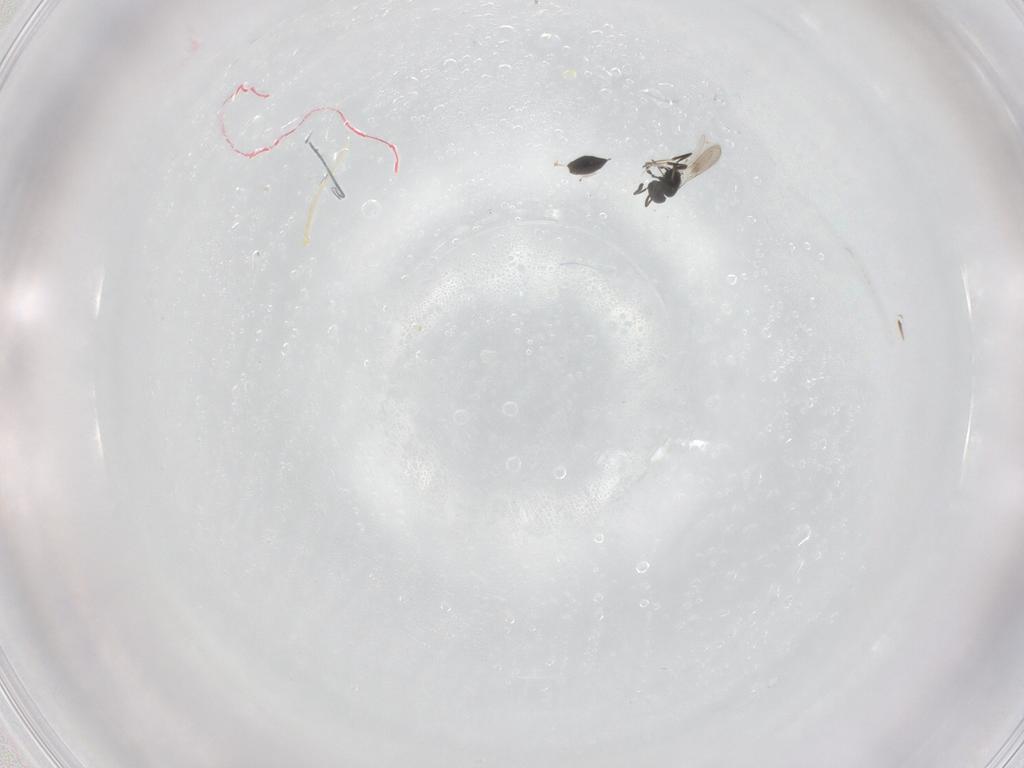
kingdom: Animalia
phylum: Arthropoda
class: Insecta
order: Hymenoptera
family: Scelionidae
